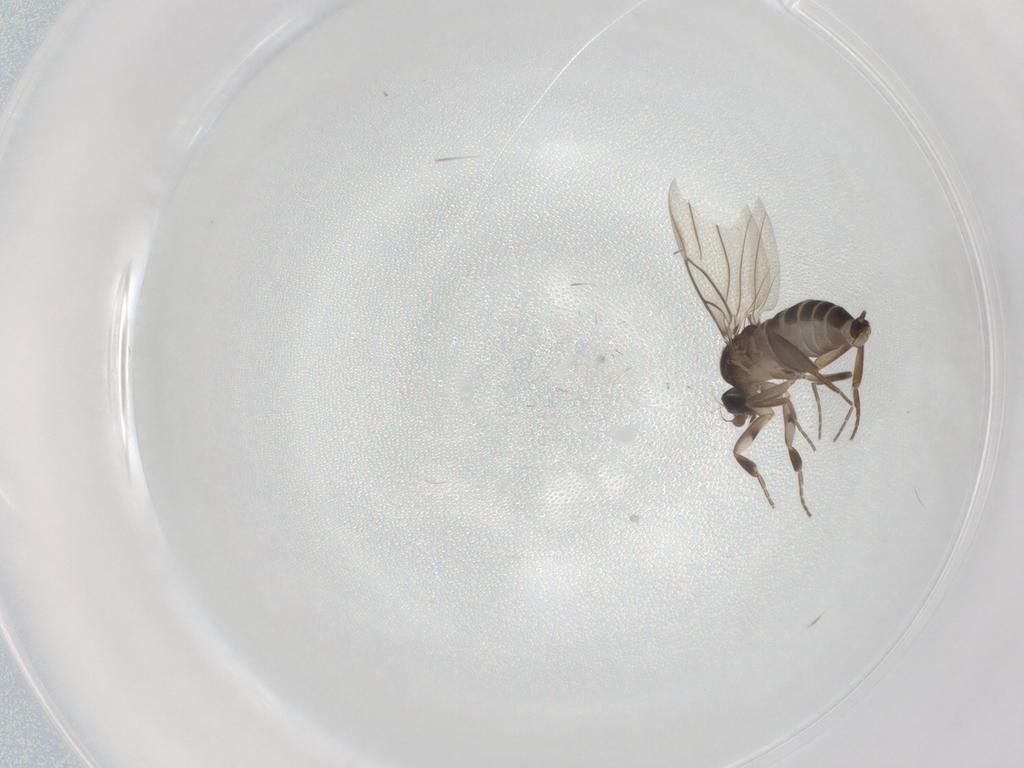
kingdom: Animalia
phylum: Arthropoda
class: Insecta
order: Diptera
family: Phoridae
